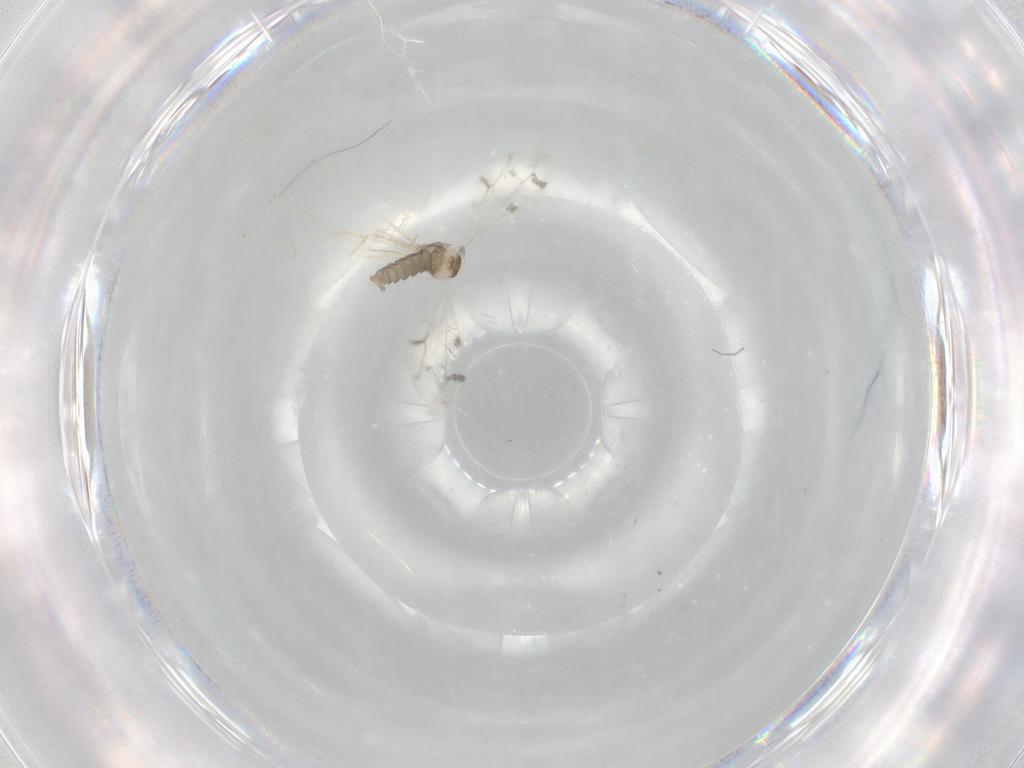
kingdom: Animalia
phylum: Arthropoda
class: Insecta
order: Diptera
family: Cecidomyiidae
